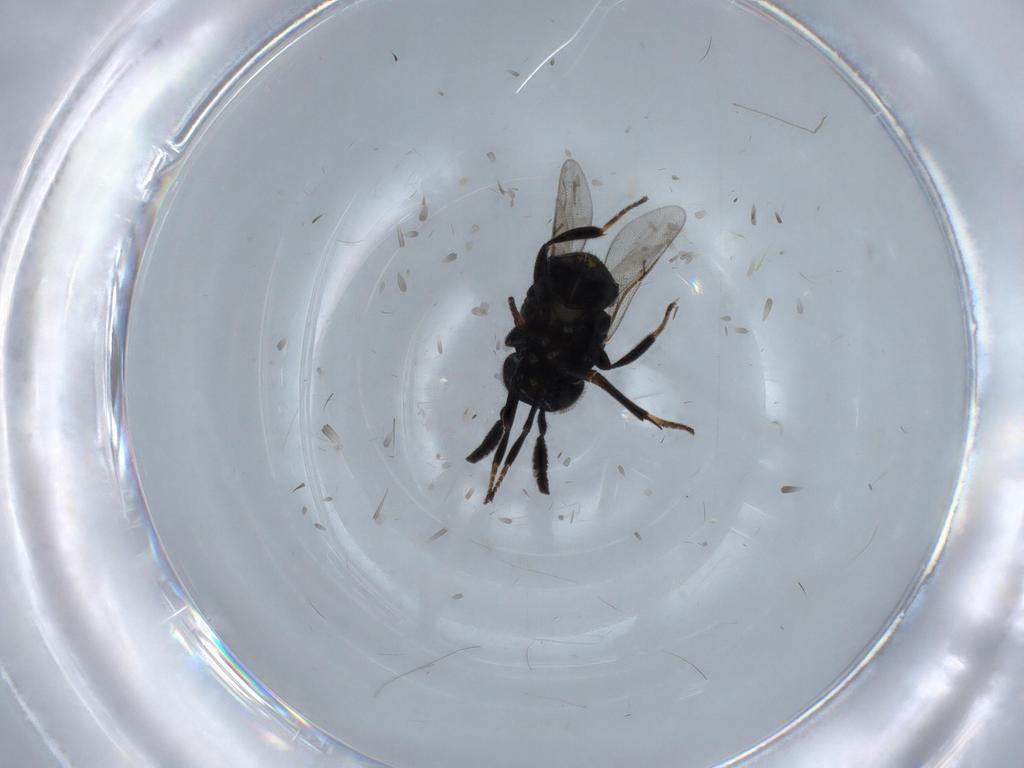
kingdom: Animalia
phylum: Arthropoda
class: Insecta
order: Hymenoptera
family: Encyrtidae
